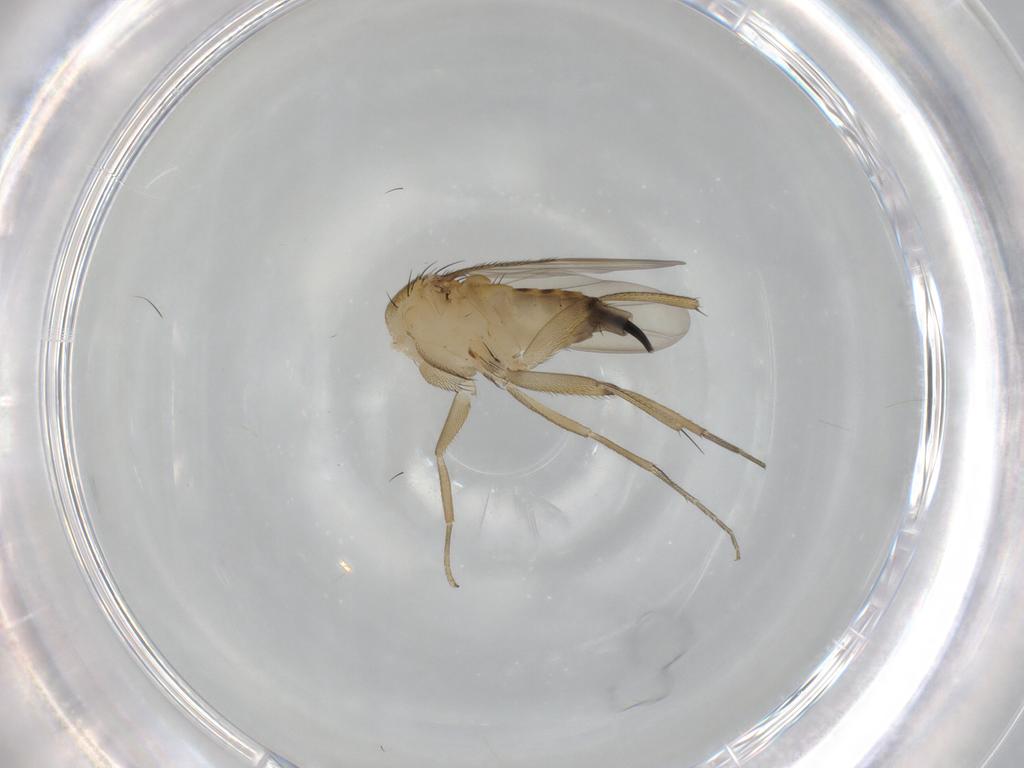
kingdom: Animalia
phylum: Arthropoda
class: Insecta
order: Diptera
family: Phoridae
